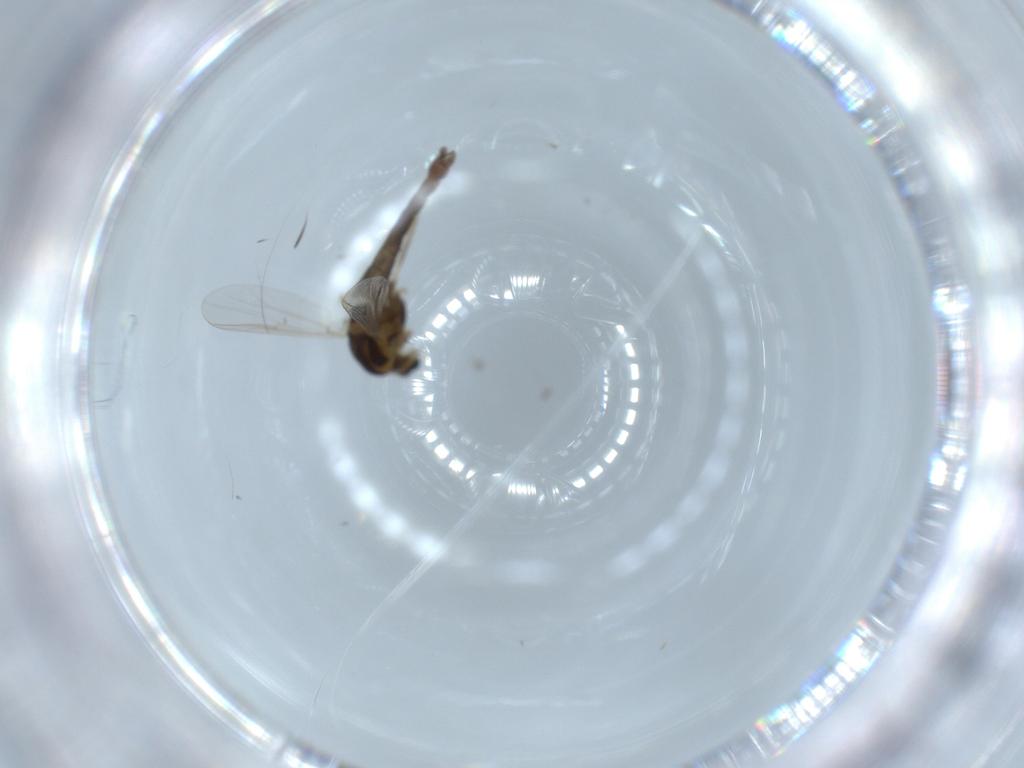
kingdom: Animalia
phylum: Arthropoda
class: Insecta
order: Diptera
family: Chironomidae
